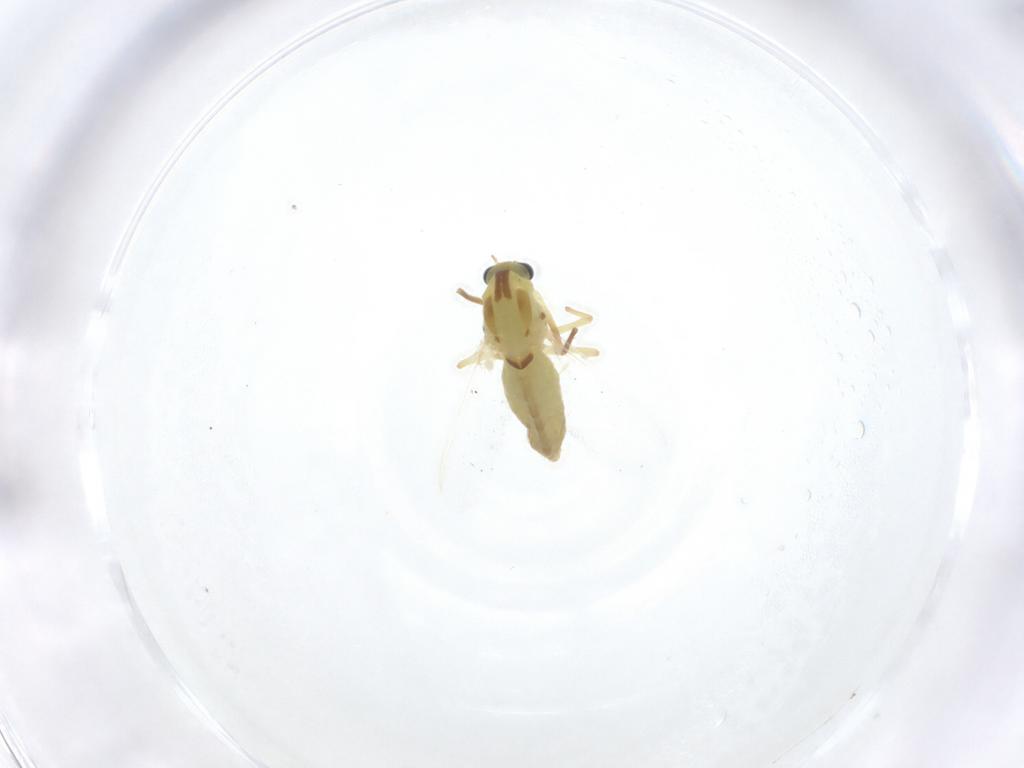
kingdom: Animalia
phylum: Arthropoda
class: Insecta
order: Diptera
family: Chironomidae
